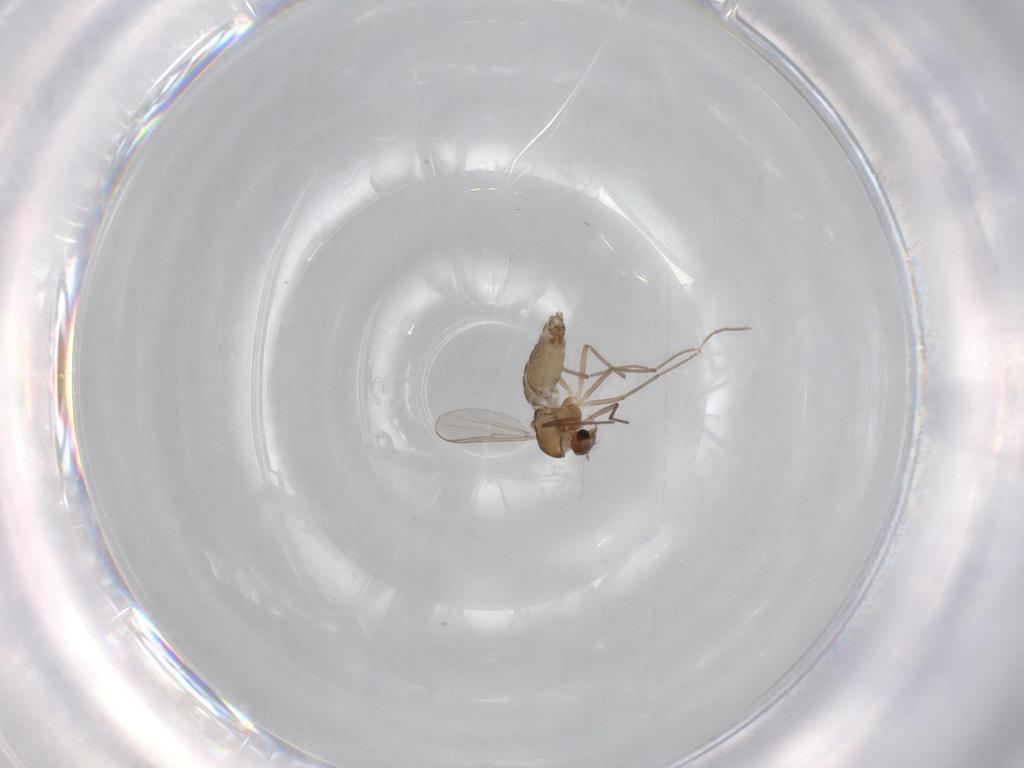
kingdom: Animalia
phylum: Arthropoda
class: Insecta
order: Diptera
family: Chironomidae
